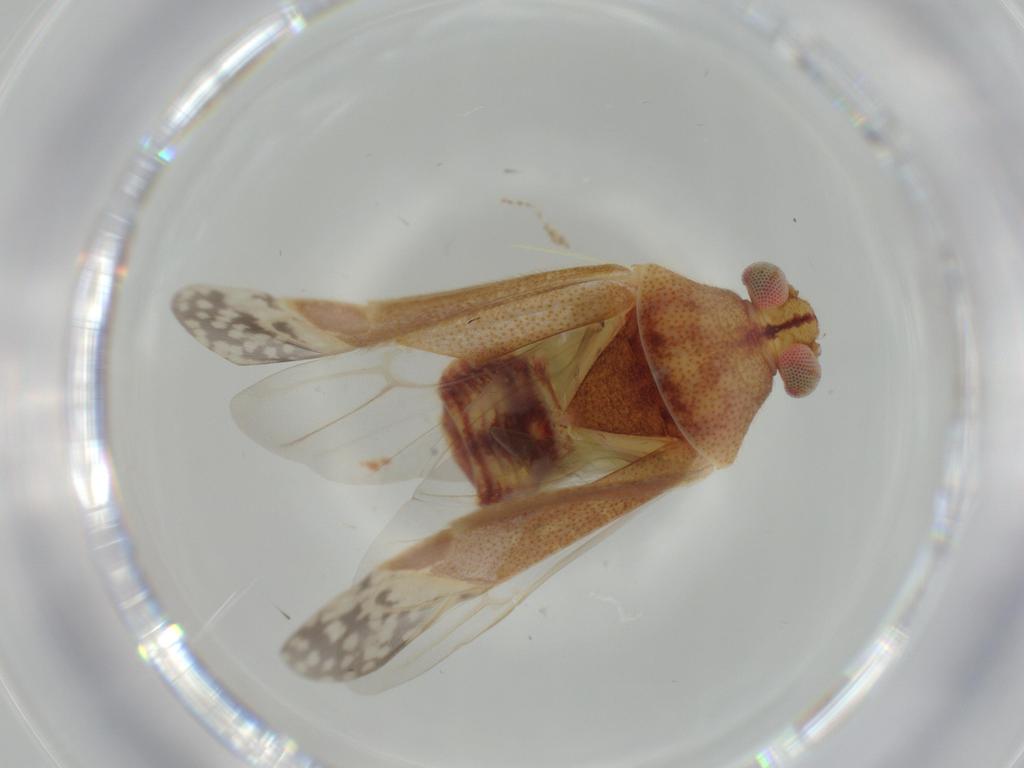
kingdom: Animalia
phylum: Arthropoda
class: Insecta
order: Hemiptera
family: Miridae
